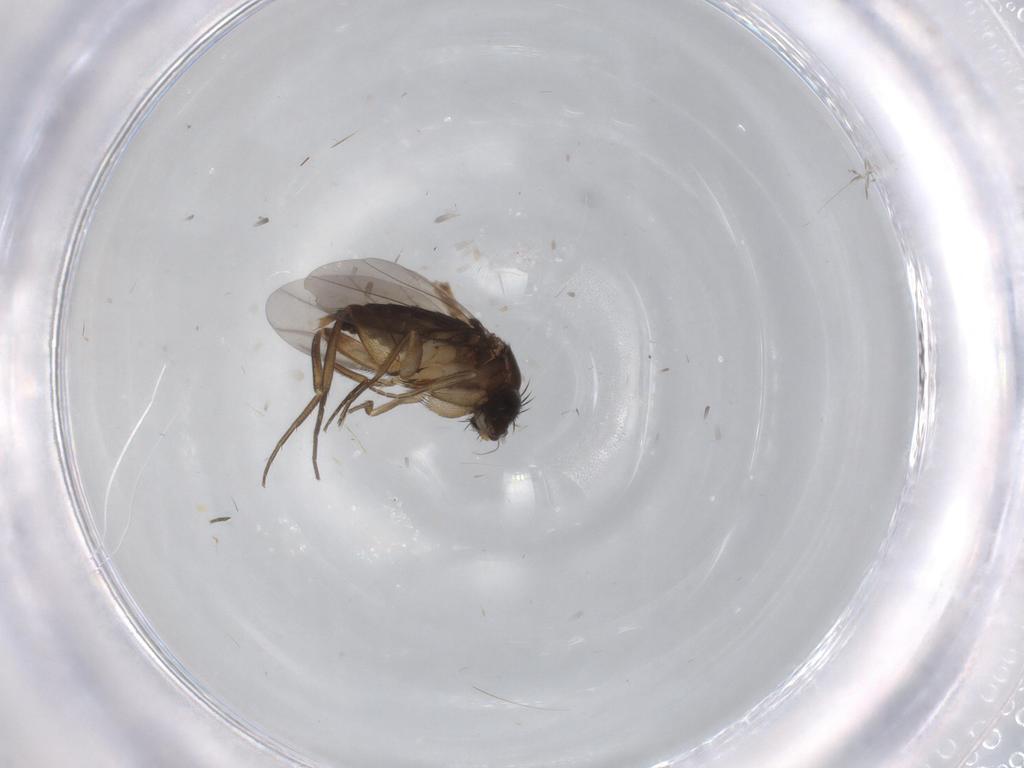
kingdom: Animalia
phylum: Arthropoda
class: Insecta
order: Diptera
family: Phoridae
